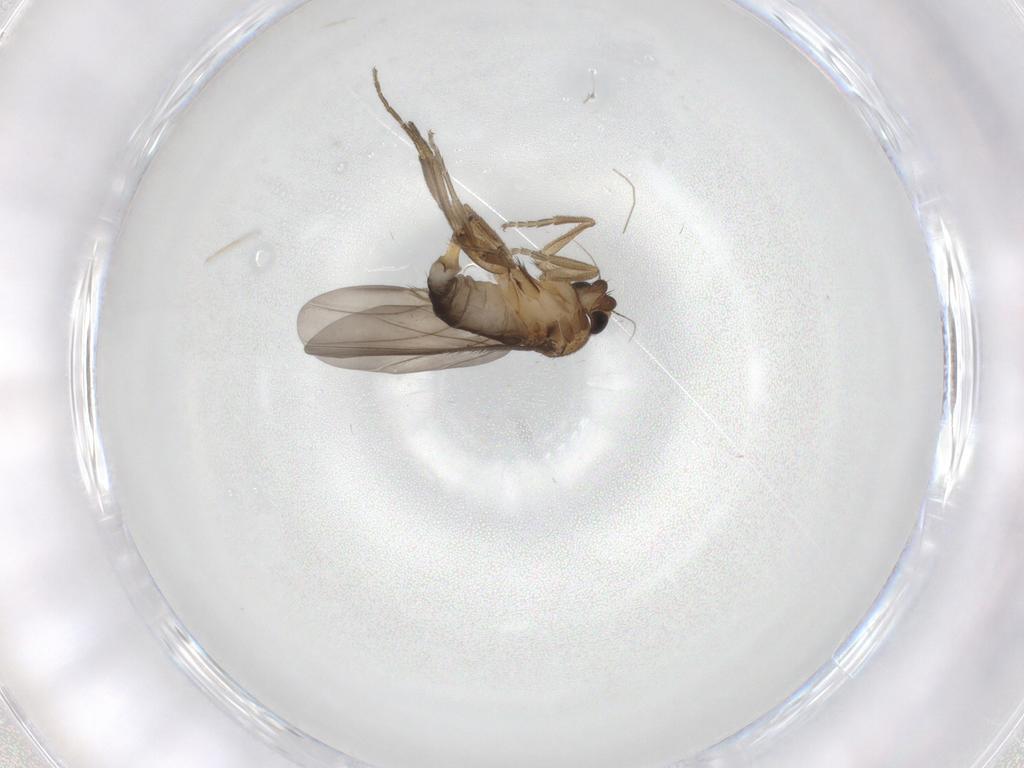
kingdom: Animalia
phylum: Arthropoda
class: Insecta
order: Diptera
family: Phoridae
